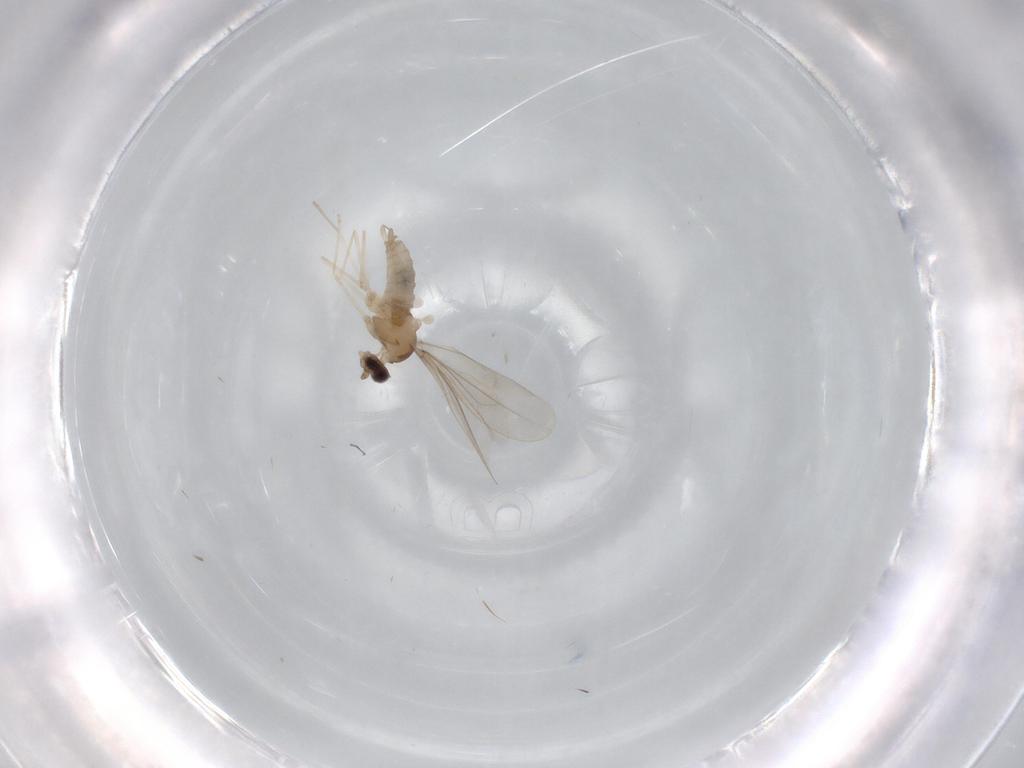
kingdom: Animalia
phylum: Arthropoda
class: Insecta
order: Diptera
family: Cecidomyiidae
